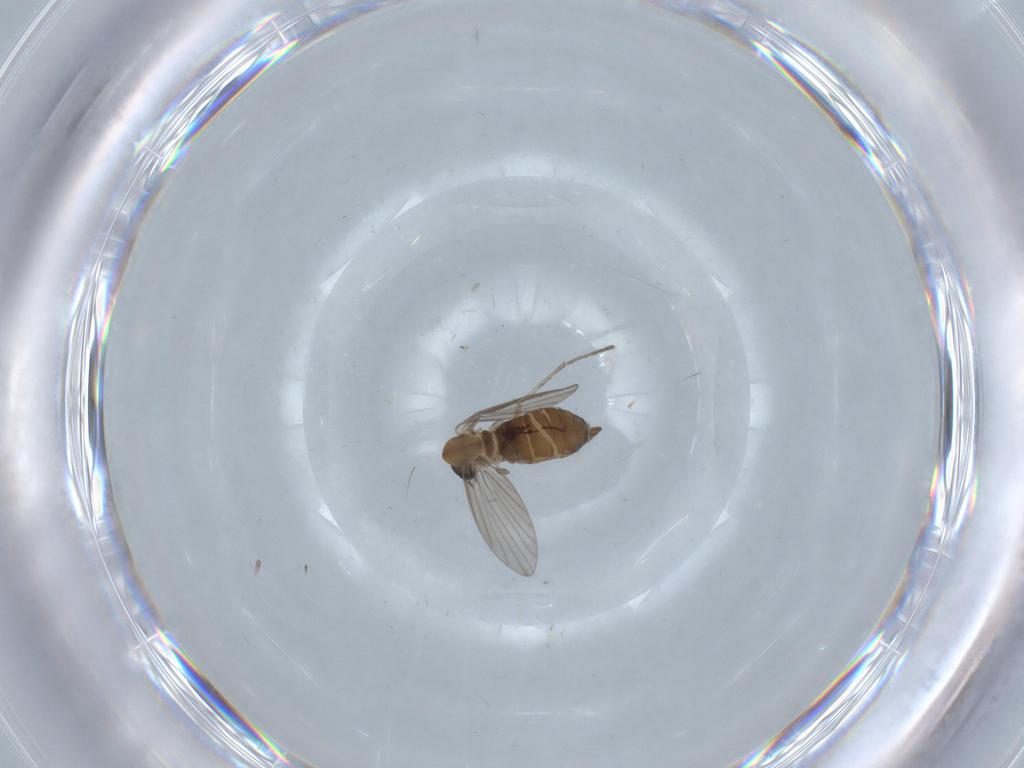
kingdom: Animalia
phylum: Arthropoda
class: Insecta
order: Diptera
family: Psychodidae
